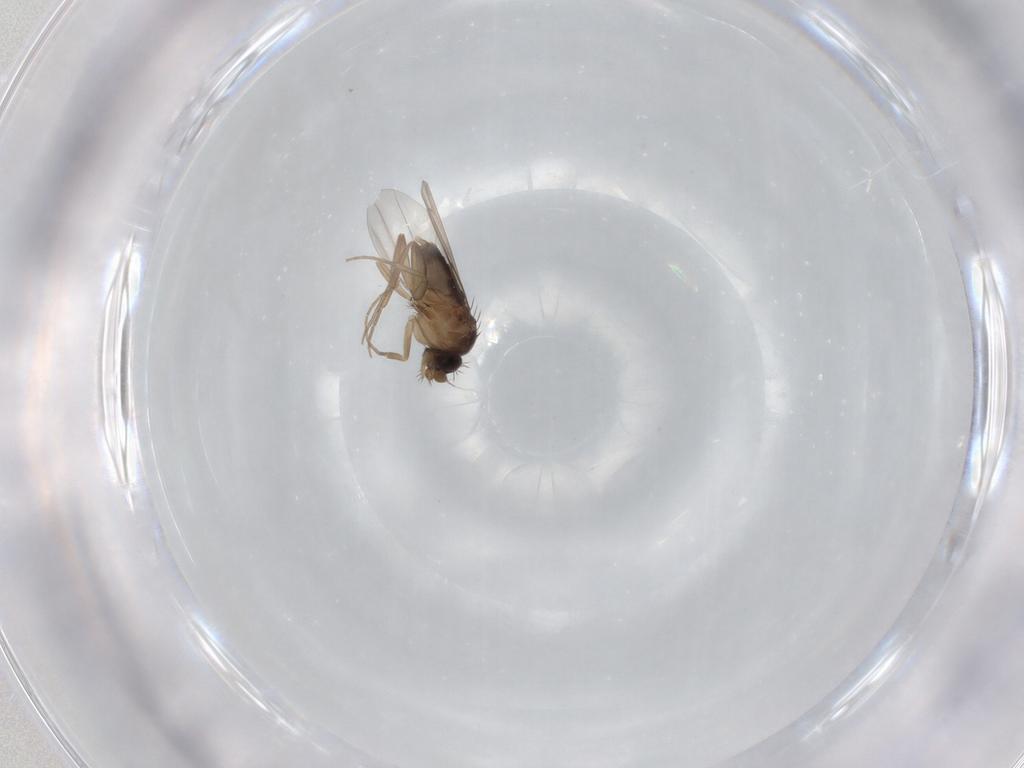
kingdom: Animalia
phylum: Arthropoda
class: Insecta
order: Diptera
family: Phoridae
